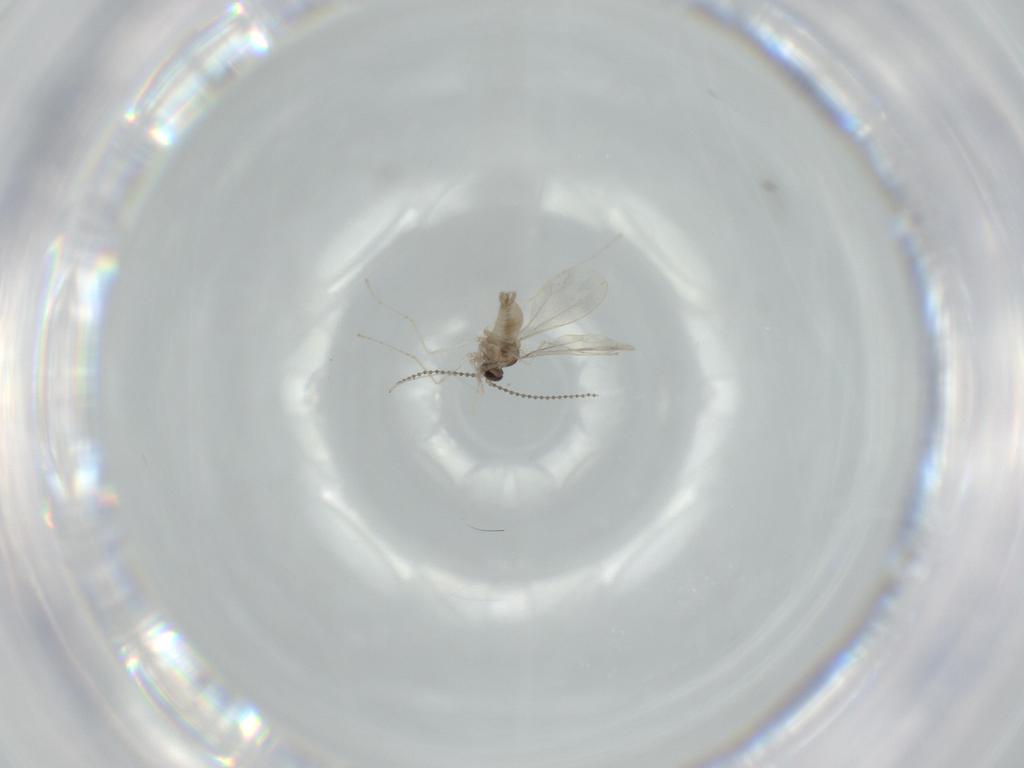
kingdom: Animalia
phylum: Arthropoda
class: Insecta
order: Diptera
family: Cecidomyiidae
